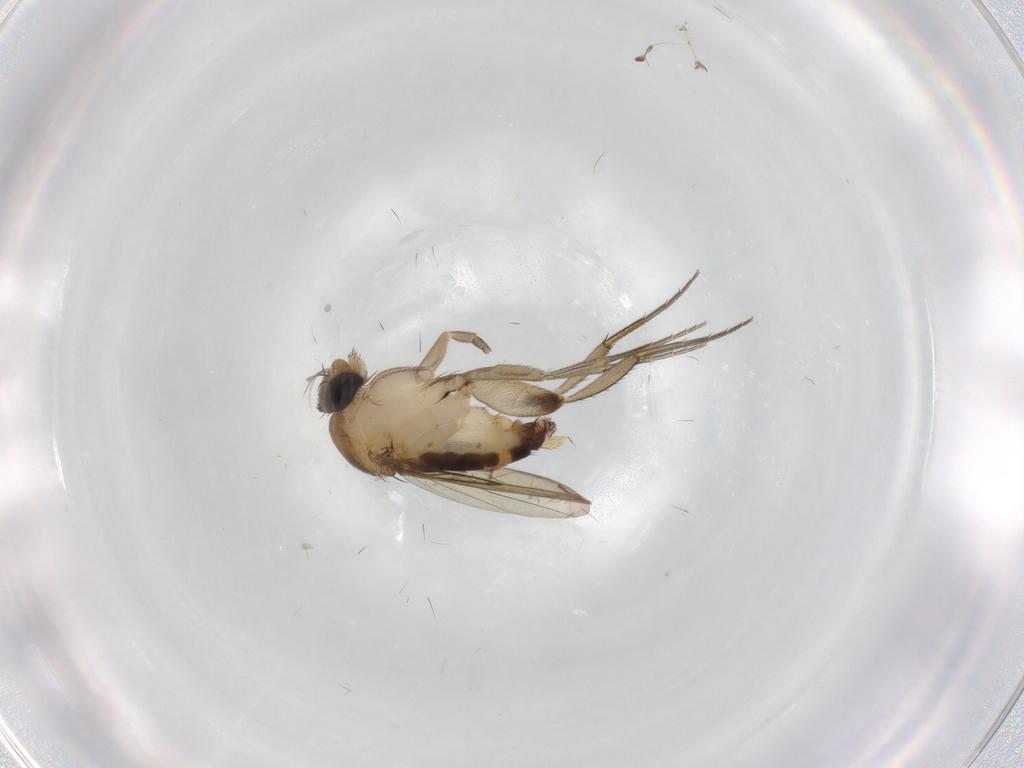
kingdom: Animalia
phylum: Arthropoda
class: Insecta
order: Diptera
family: Phoridae
